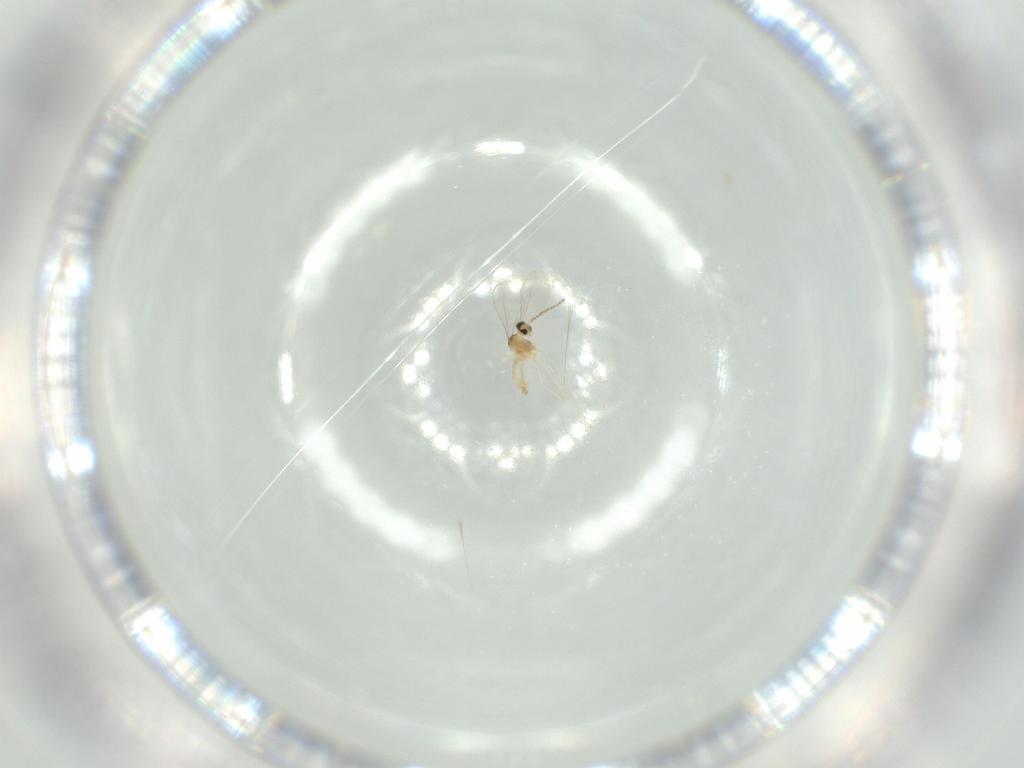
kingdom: Animalia
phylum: Arthropoda
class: Insecta
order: Diptera
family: Cecidomyiidae
